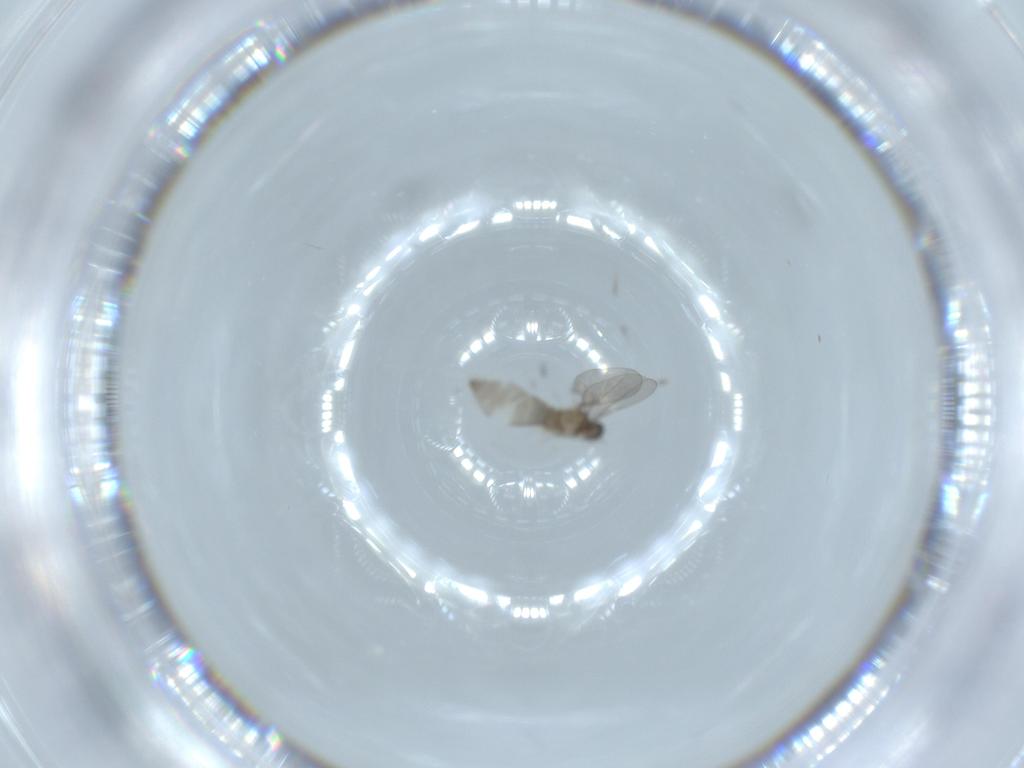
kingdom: Animalia
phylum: Arthropoda
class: Insecta
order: Diptera
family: Cecidomyiidae
